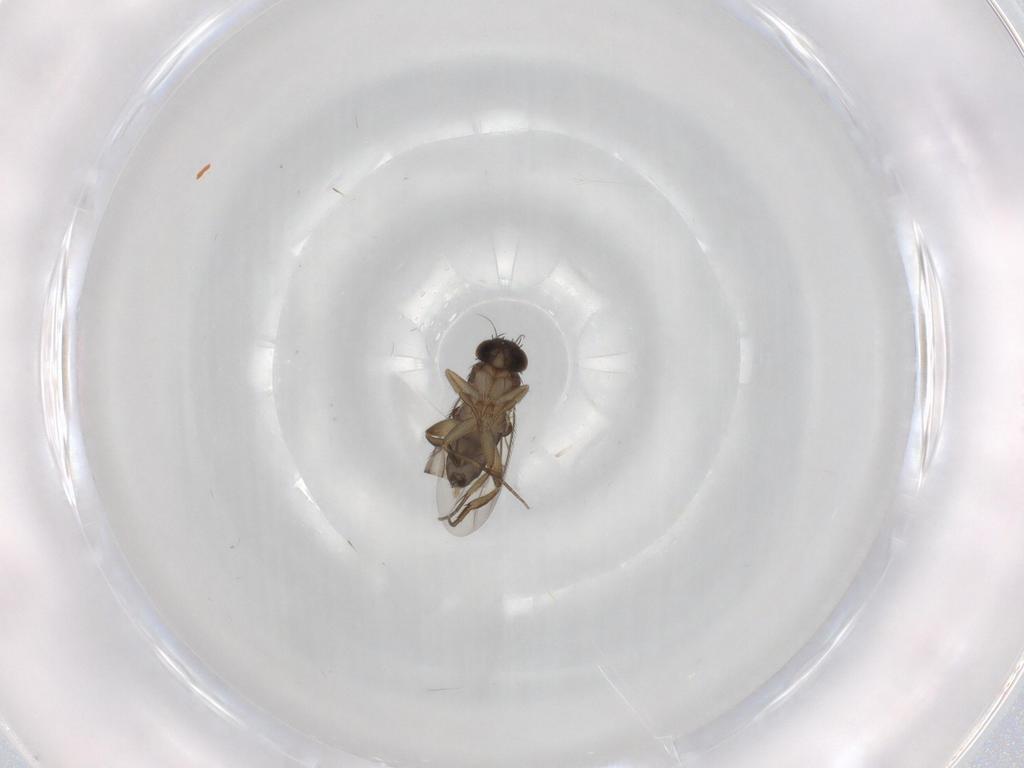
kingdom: Animalia
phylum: Arthropoda
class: Insecta
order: Diptera
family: Phoridae
